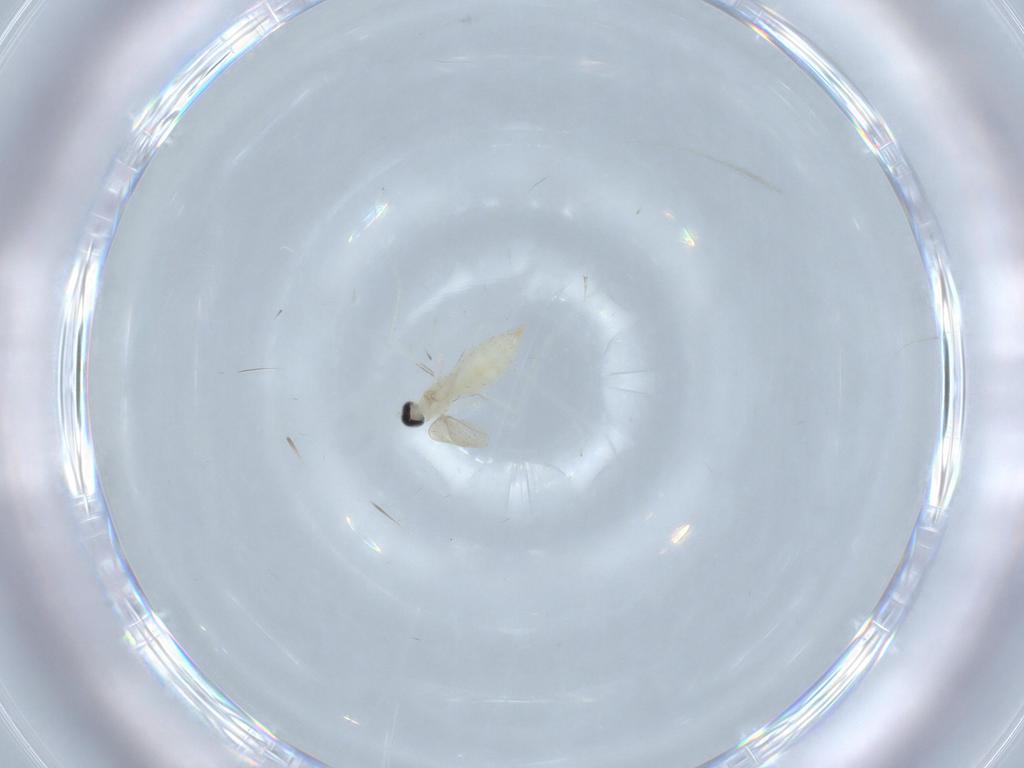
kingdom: Animalia
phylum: Arthropoda
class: Insecta
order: Diptera
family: Cecidomyiidae
